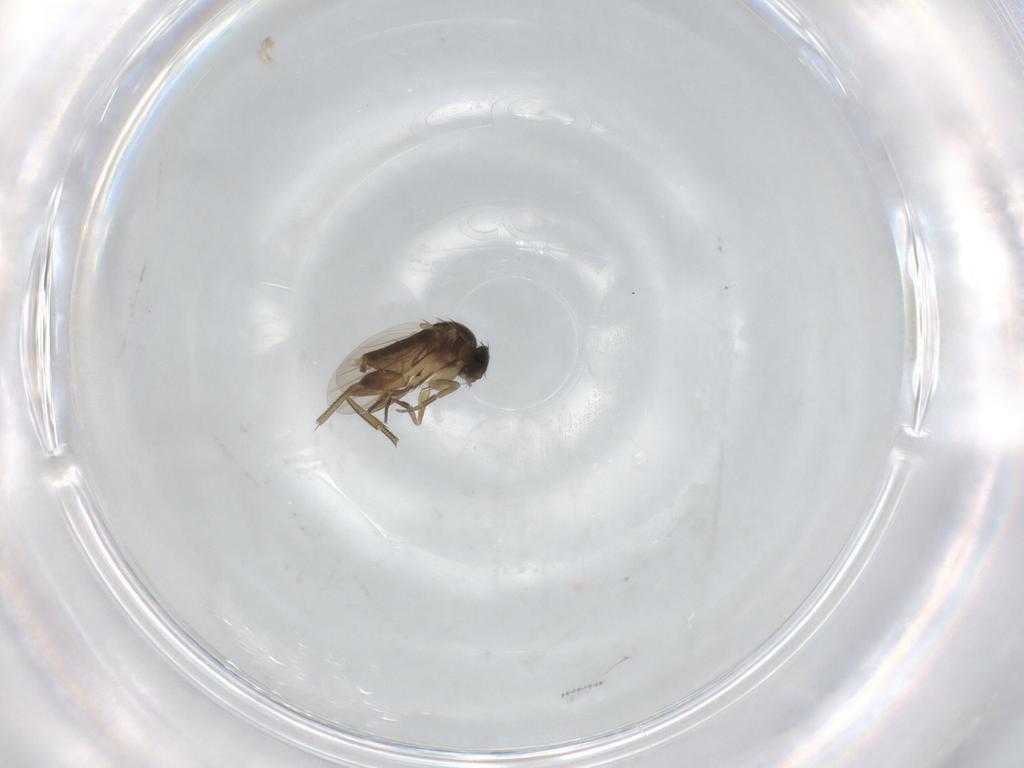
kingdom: Animalia
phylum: Arthropoda
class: Insecta
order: Diptera
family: Phoridae
